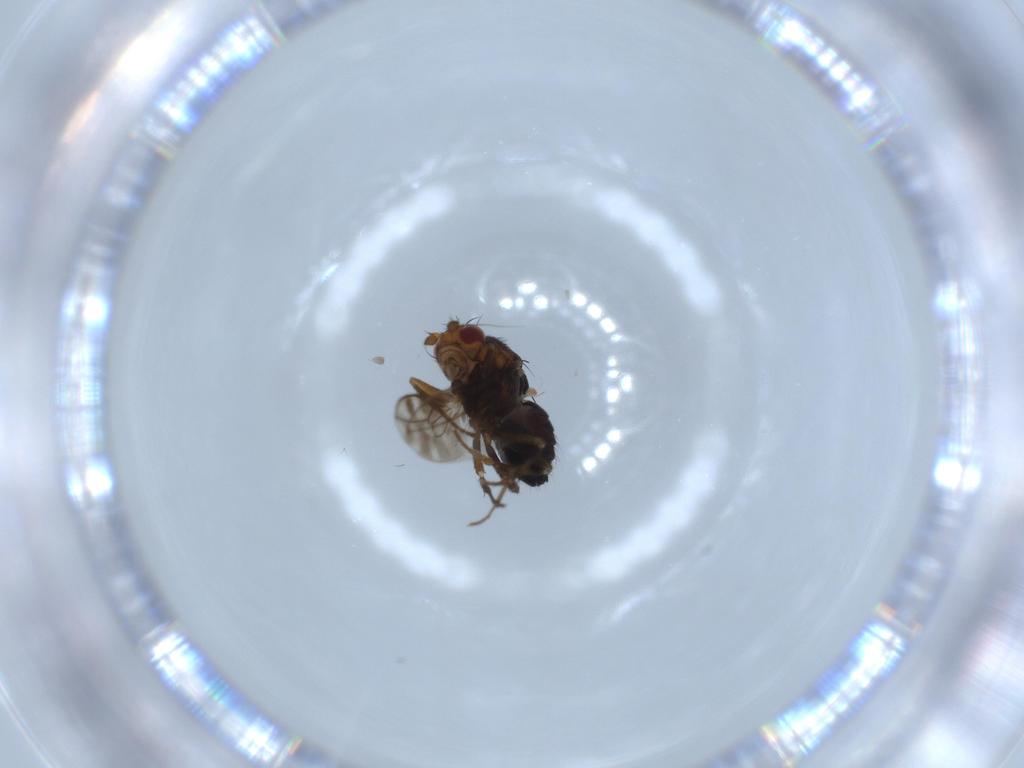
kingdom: Animalia
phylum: Arthropoda
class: Insecta
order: Diptera
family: Sphaeroceridae
